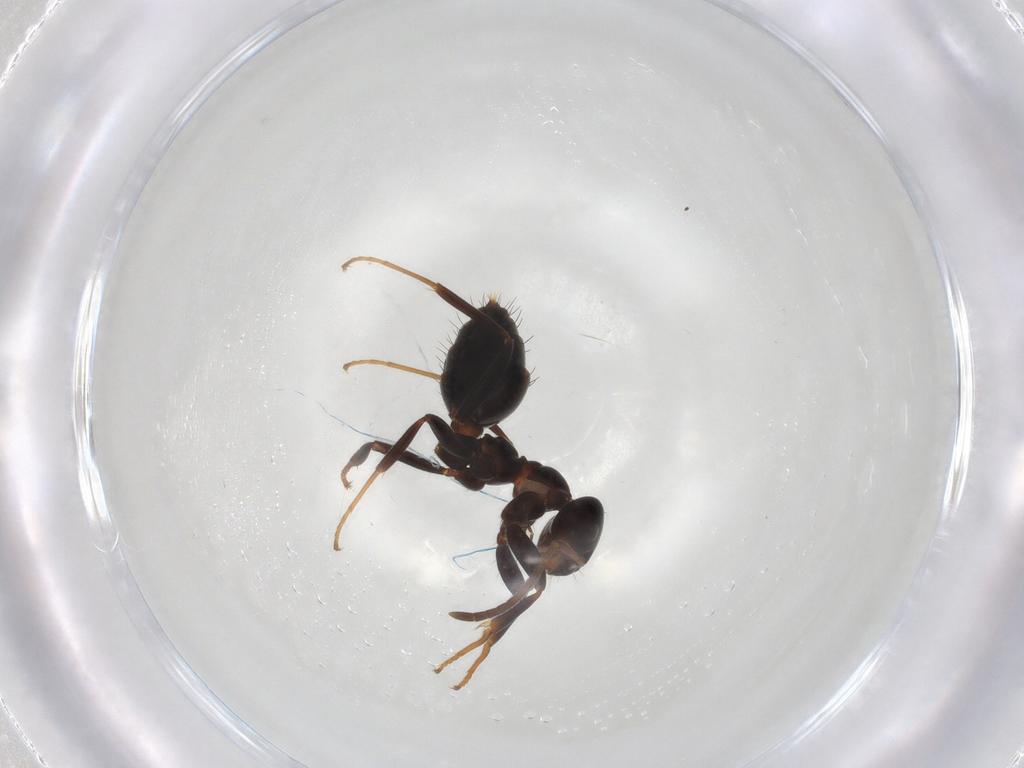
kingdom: Animalia
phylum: Arthropoda
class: Insecta
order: Hymenoptera
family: Formicidae
